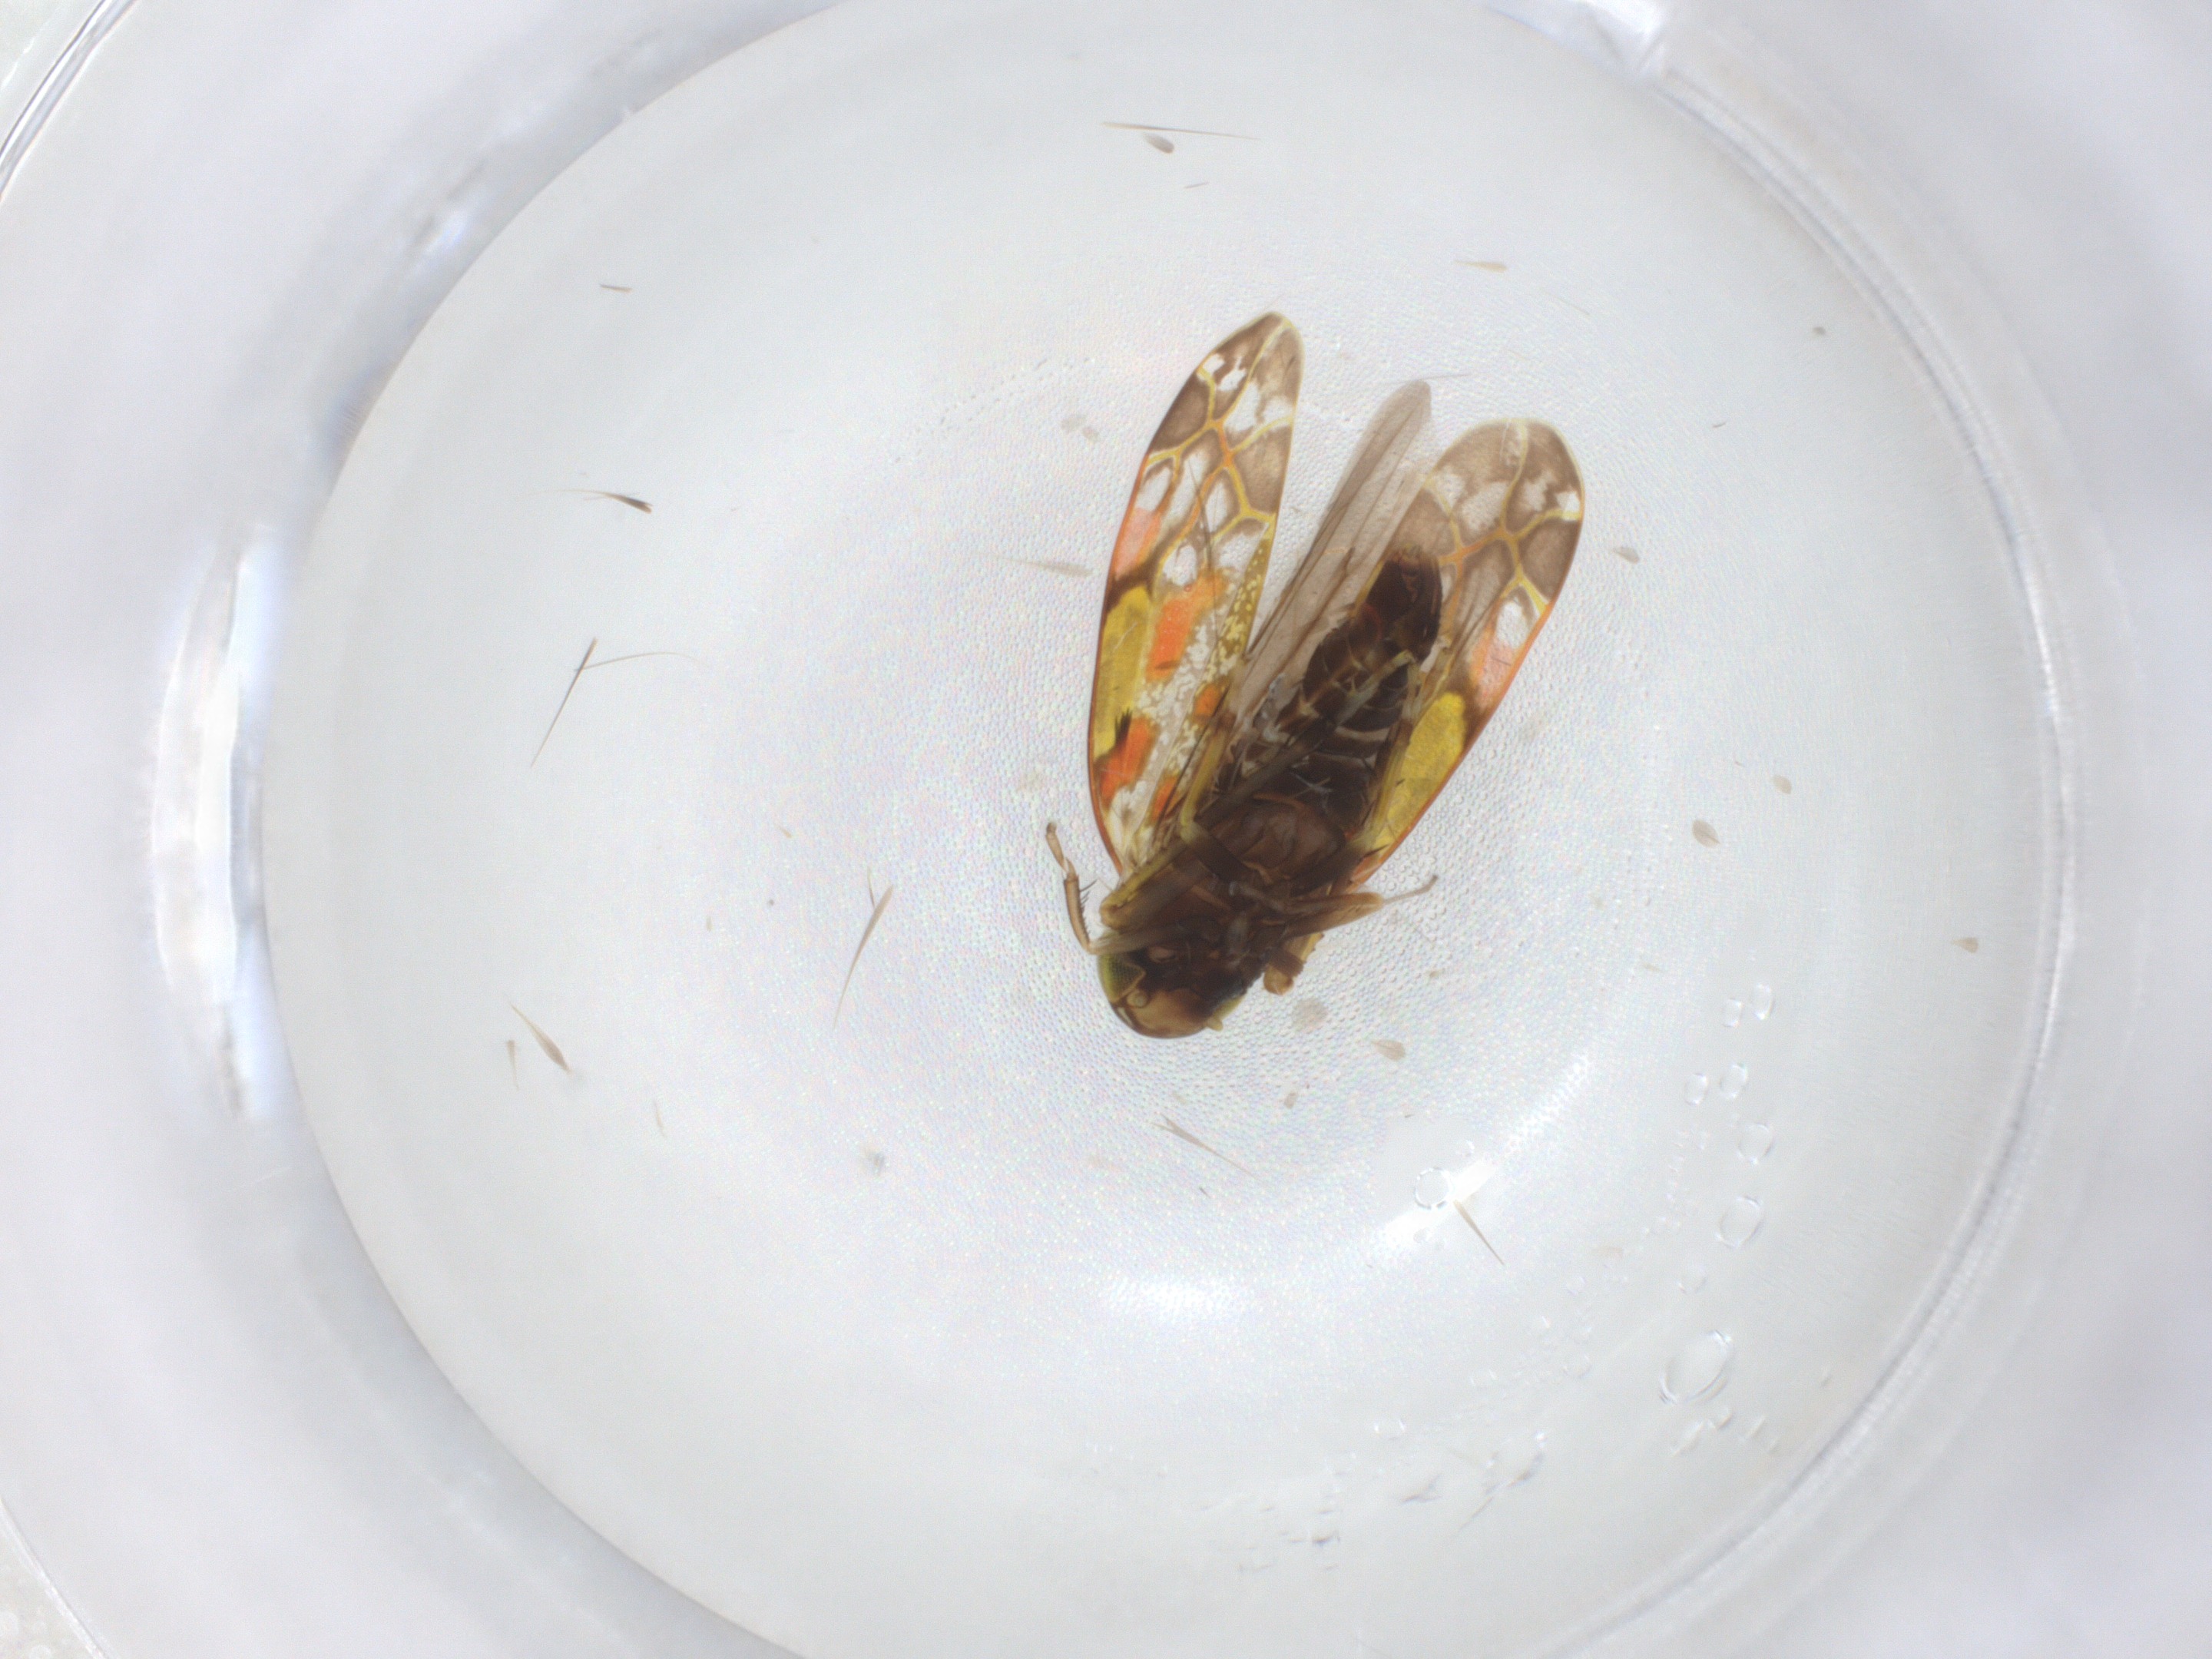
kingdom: Animalia
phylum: Arthropoda
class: Insecta
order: Hemiptera
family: Cicadellidae
